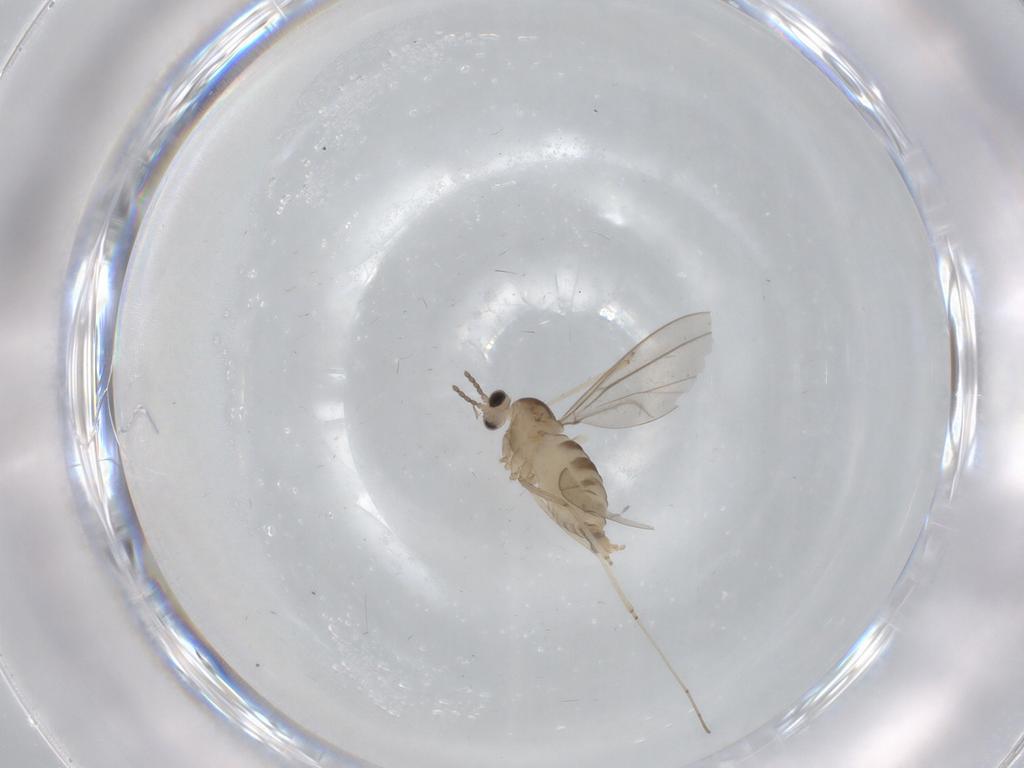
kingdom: Animalia
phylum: Arthropoda
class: Insecta
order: Diptera
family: Cecidomyiidae
